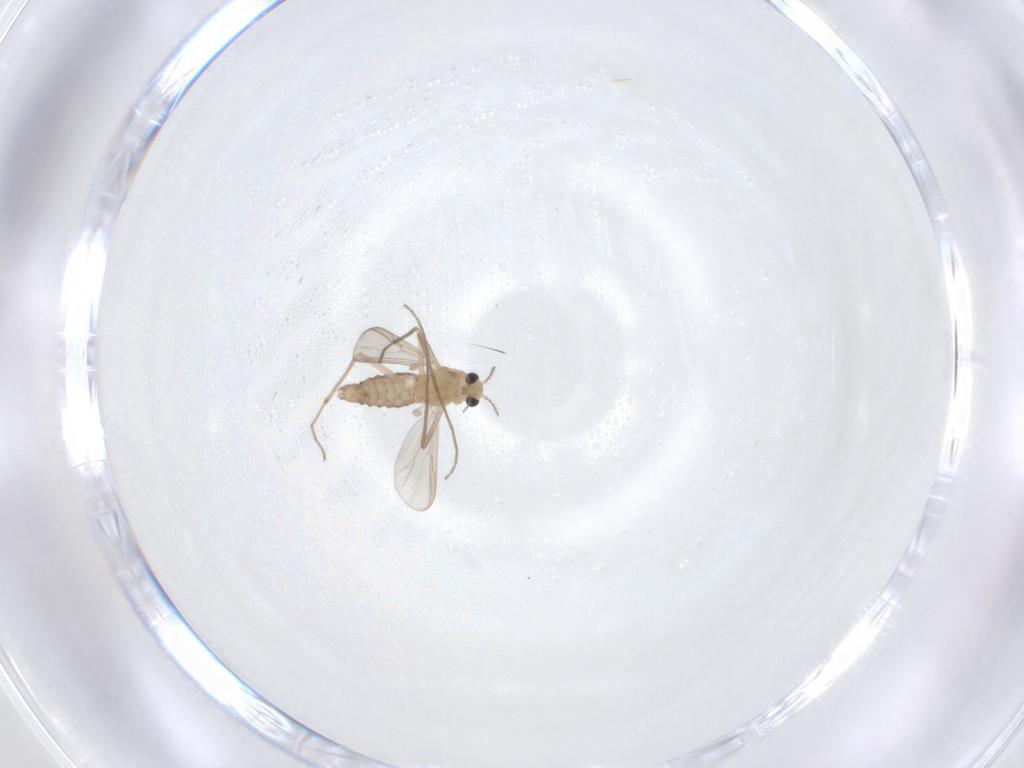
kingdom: Animalia
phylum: Arthropoda
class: Insecta
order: Diptera
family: Chironomidae
